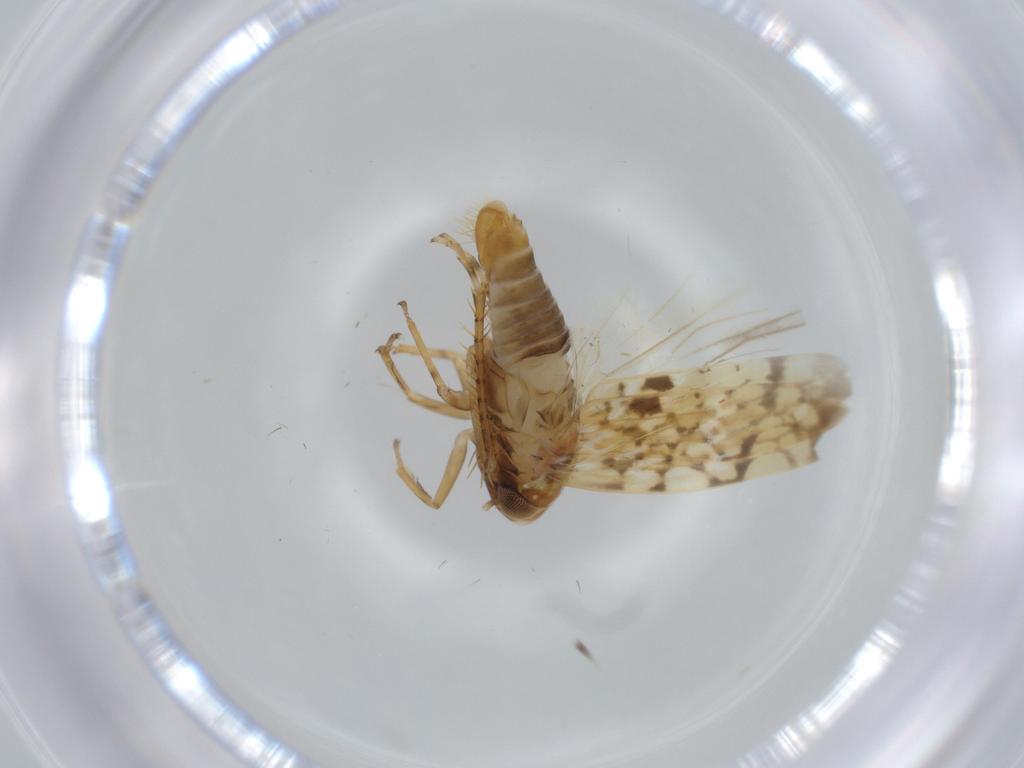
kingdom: Animalia
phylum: Arthropoda
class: Insecta
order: Hemiptera
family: Cicadellidae
